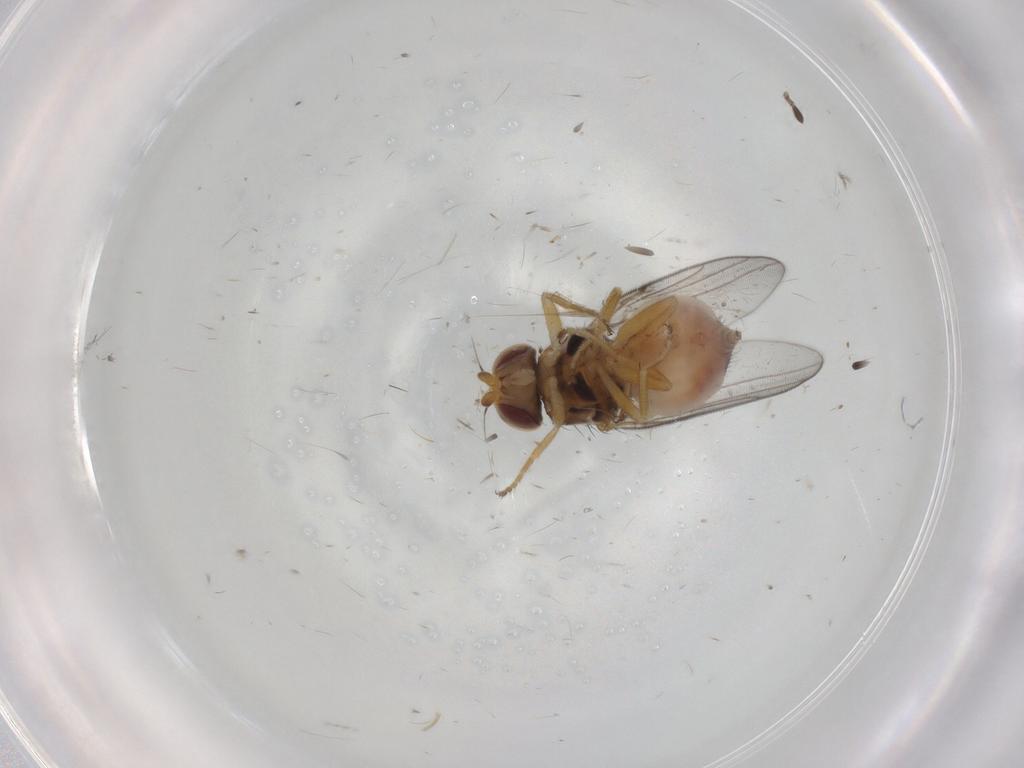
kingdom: Animalia
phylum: Arthropoda
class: Insecta
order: Diptera
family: Chloropidae
